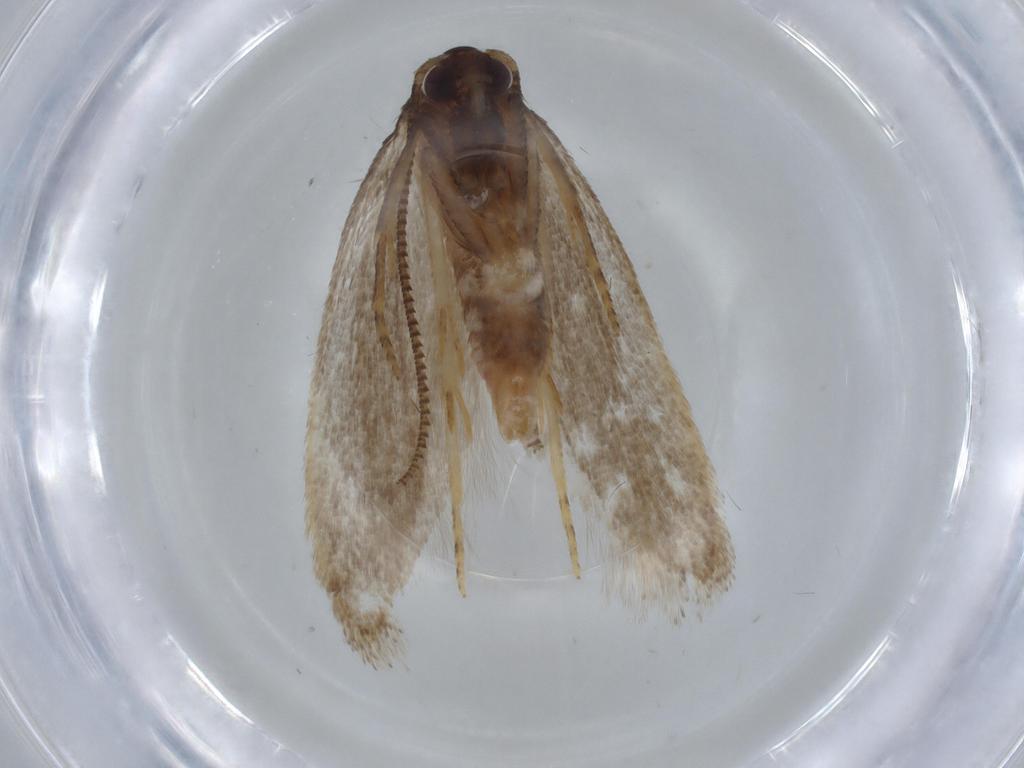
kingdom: Animalia
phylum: Arthropoda
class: Insecta
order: Lepidoptera
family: Autostichidae
